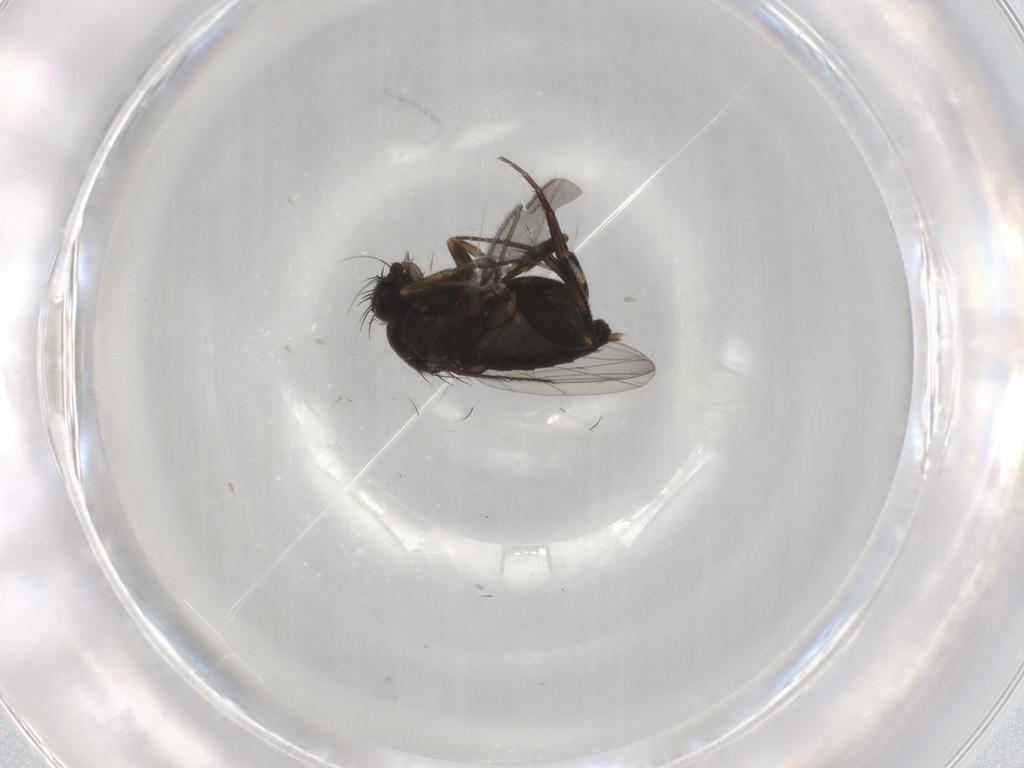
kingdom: Animalia
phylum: Arthropoda
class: Insecta
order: Diptera
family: Phoridae
